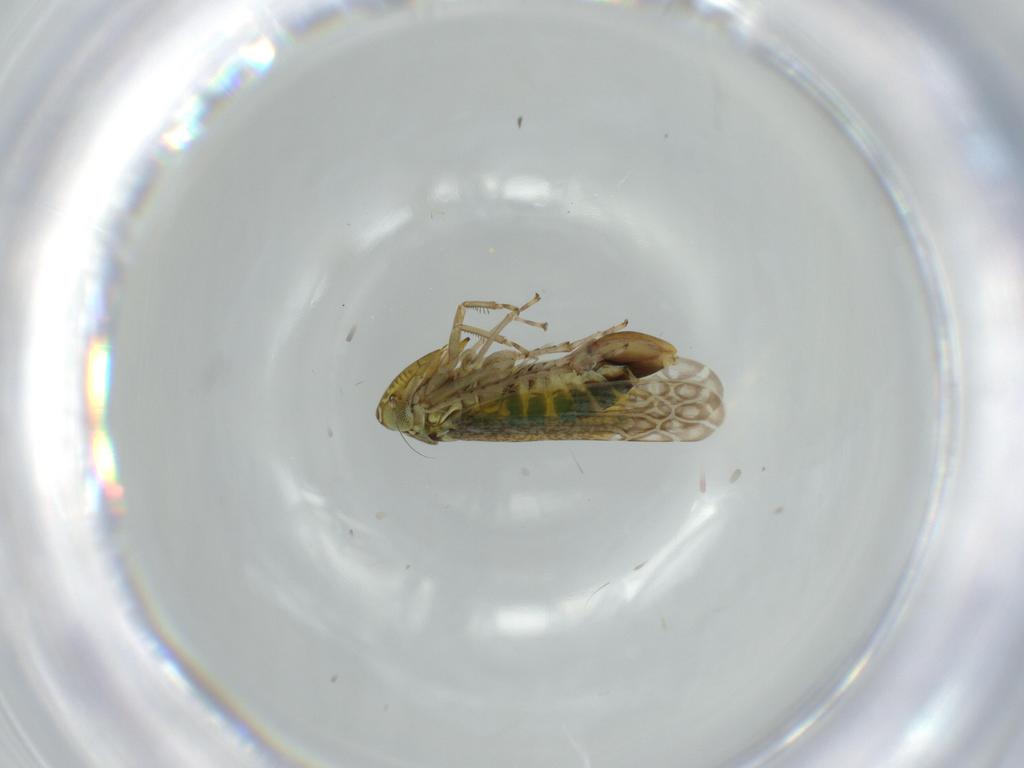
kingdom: Animalia
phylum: Arthropoda
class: Insecta
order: Hemiptera
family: Cicadellidae
